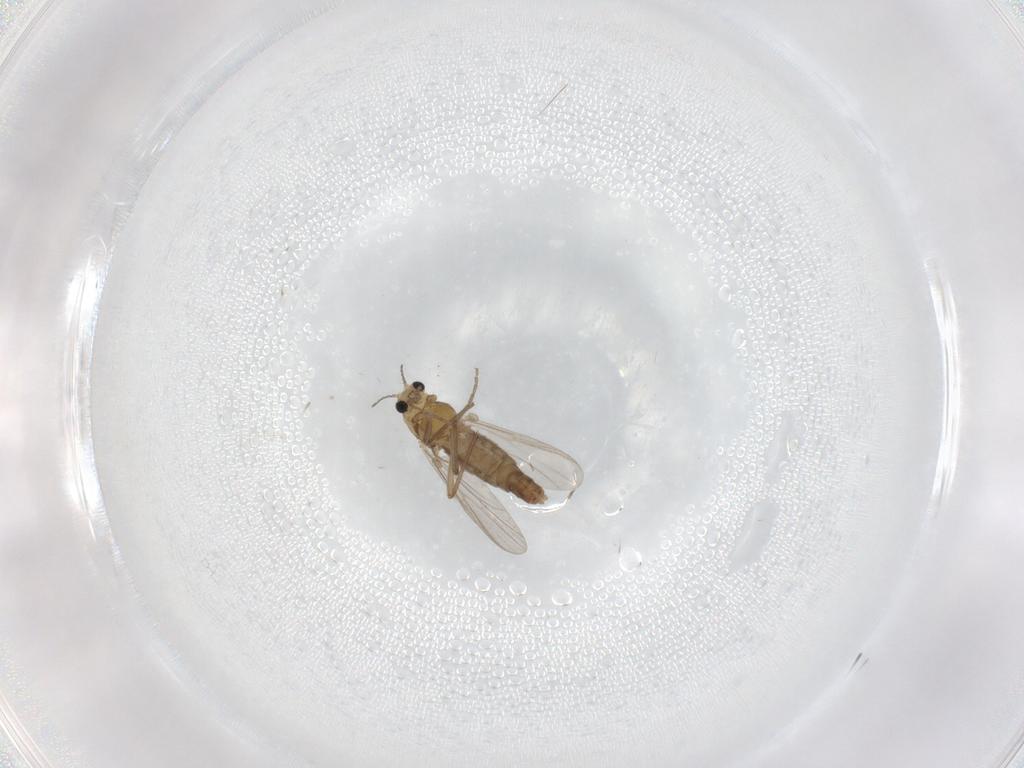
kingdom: Animalia
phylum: Arthropoda
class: Insecta
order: Diptera
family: Chironomidae
